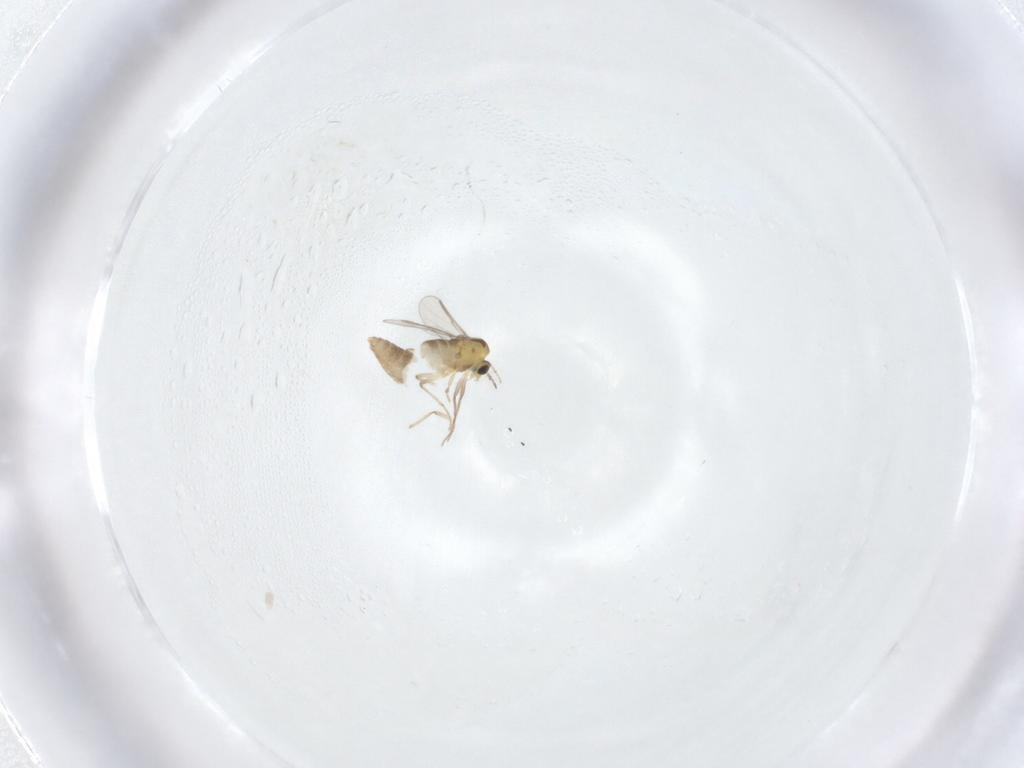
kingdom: Animalia
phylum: Arthropoda
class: Insecta
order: Diptera
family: Chironomidae
